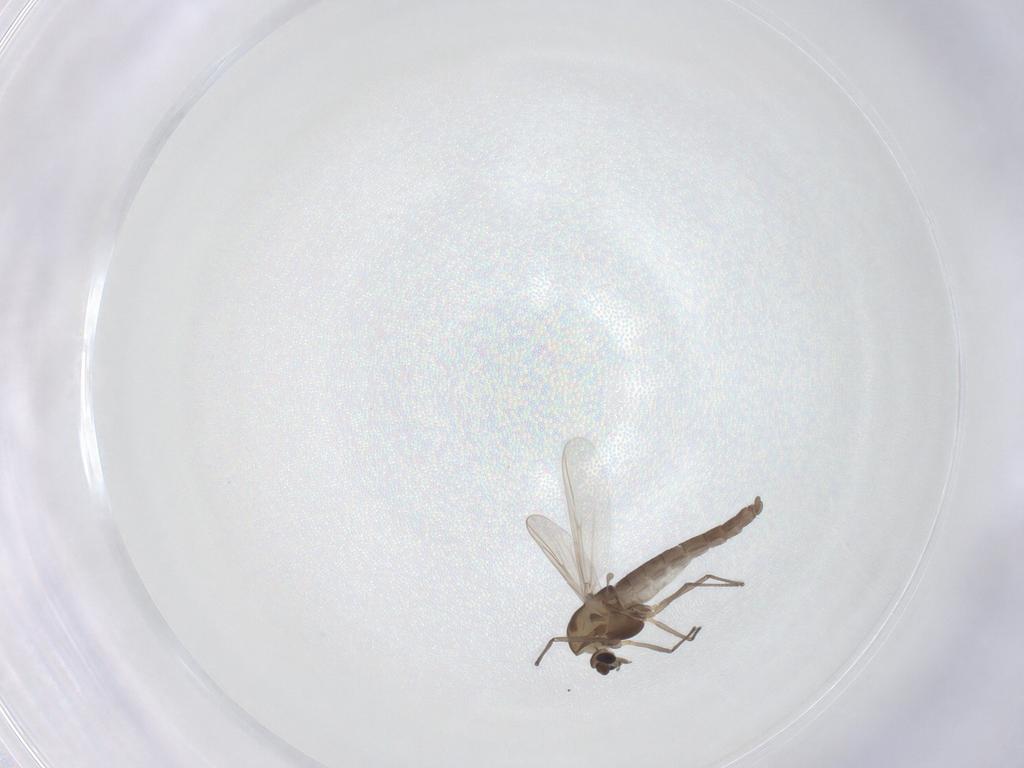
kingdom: Animalia
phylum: Arthropoda
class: Insecta
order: Diptera
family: Chironomidae
